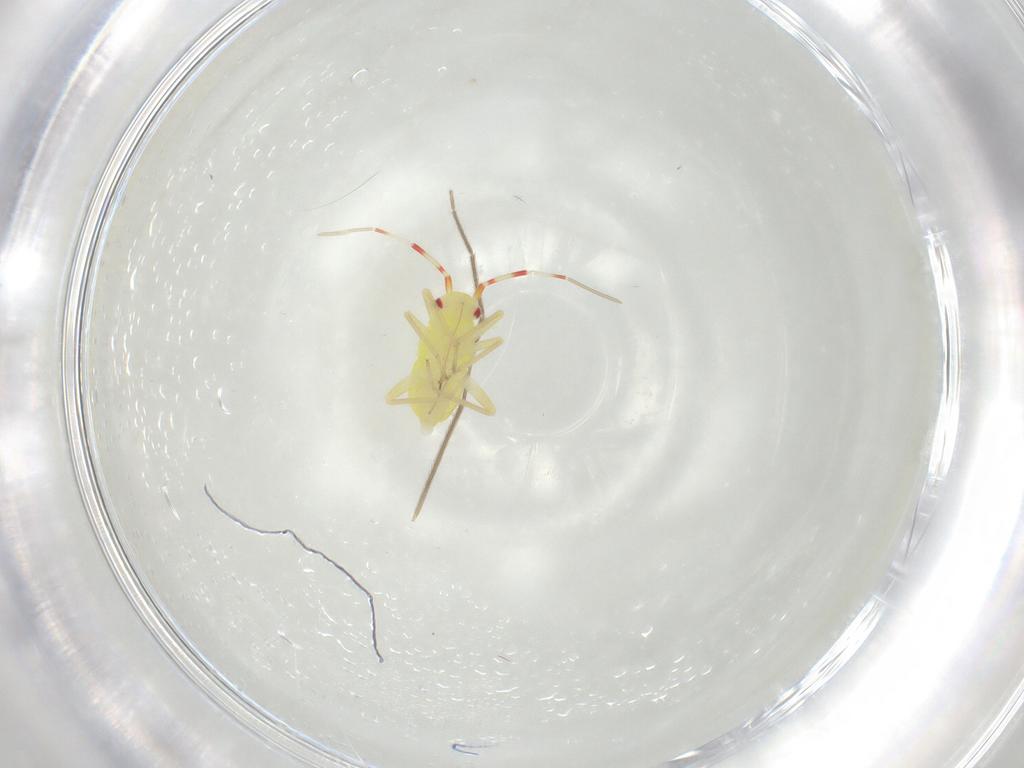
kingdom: Animalia
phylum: Arthropoda
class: Insecta
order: Hemiptera
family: Miridae
